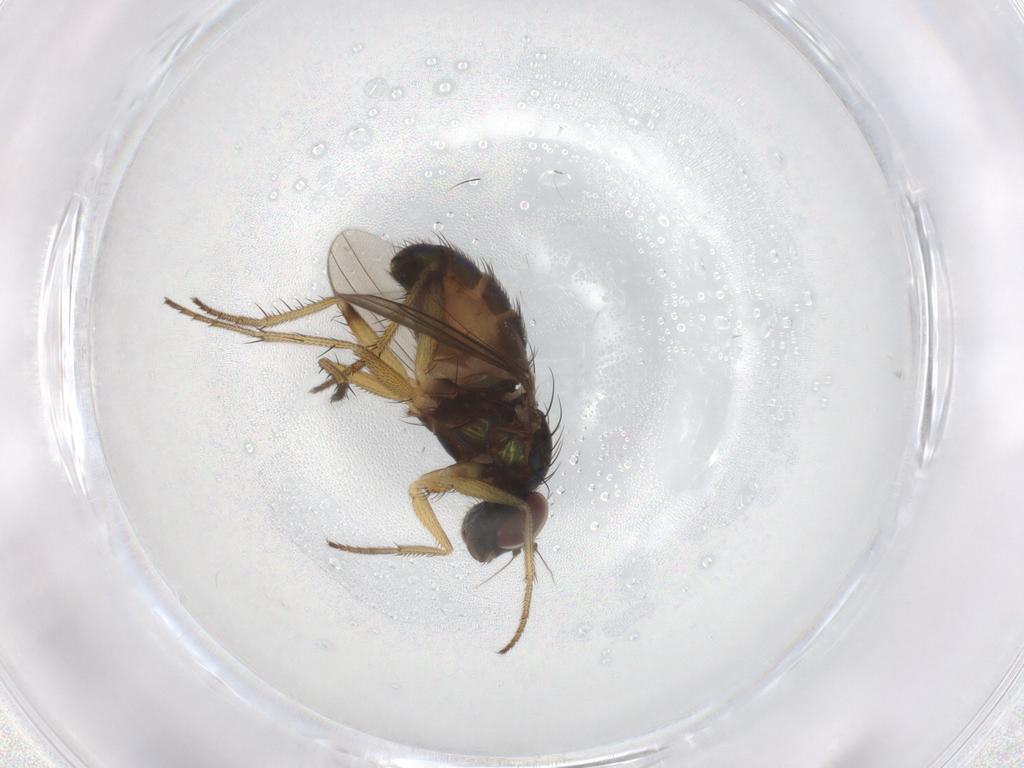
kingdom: Animalia
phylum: Arthropoda
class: Insecta
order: Diptera
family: Dolichopodidae
